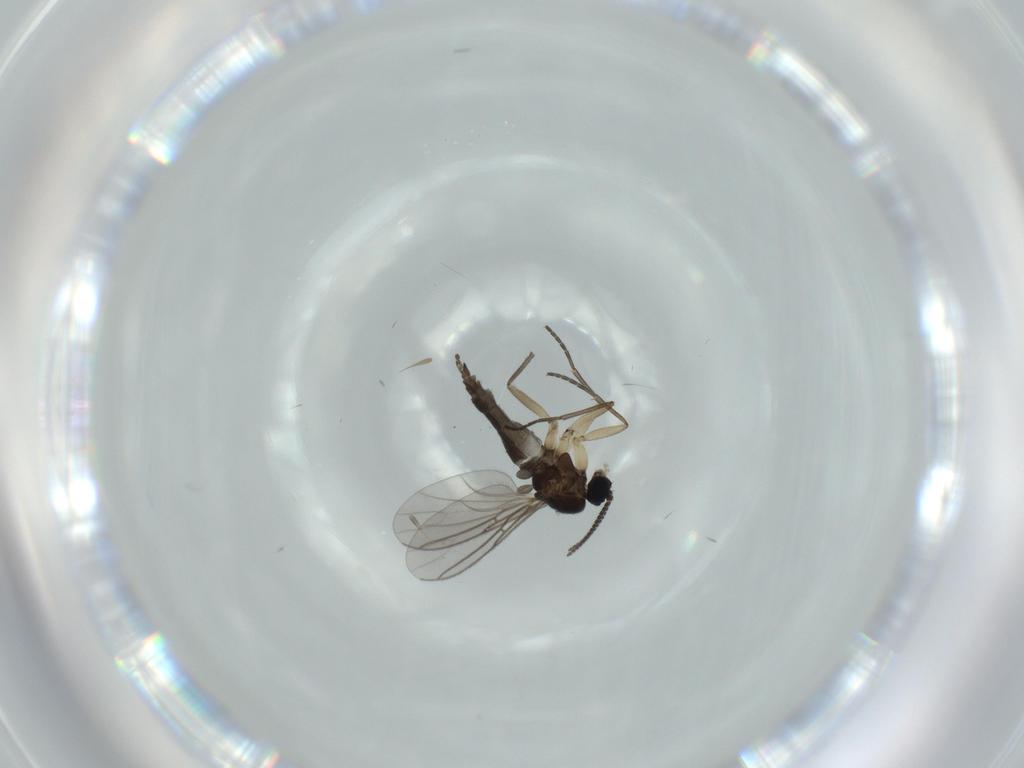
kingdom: Animalia
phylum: Arthropoda
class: Insecta
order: Diptera
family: Sciaridae
